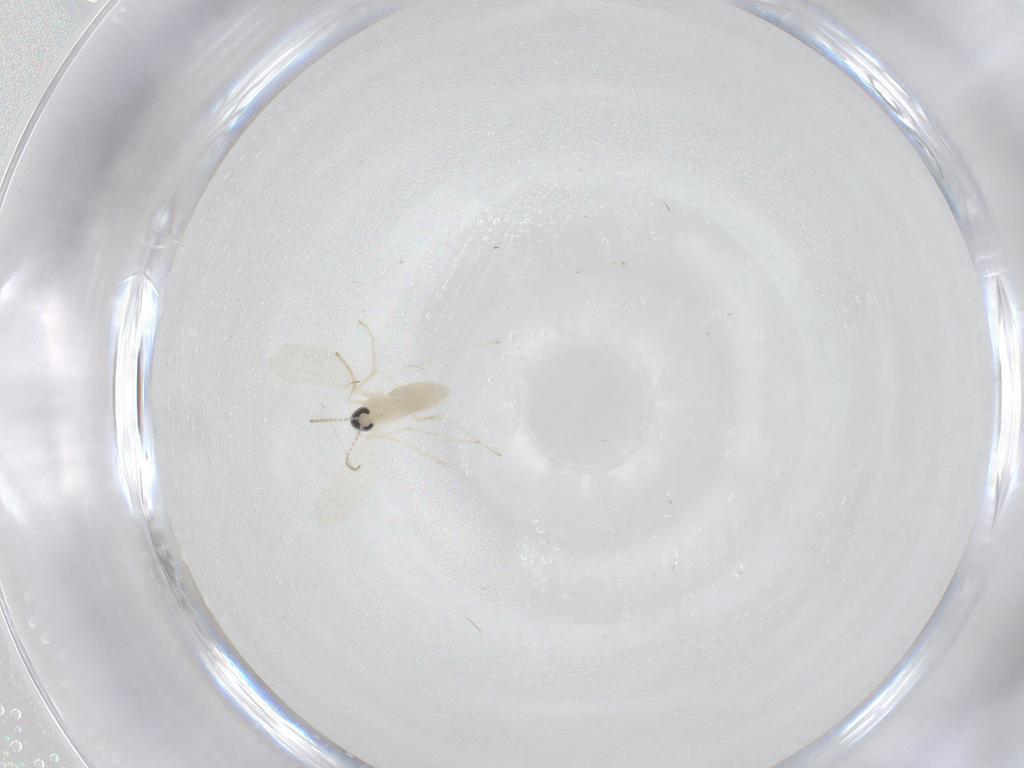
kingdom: Animalia
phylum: Arthropoda
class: Insecta
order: Diptera
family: Cecidomyiidae
